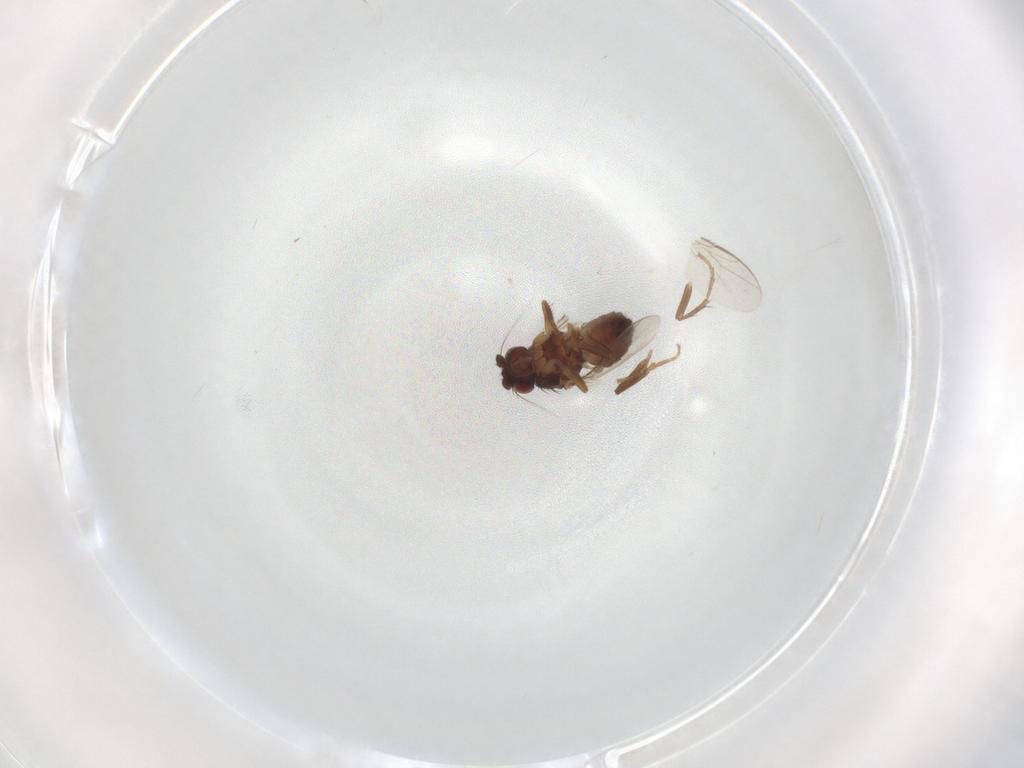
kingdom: Animalia
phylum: Arthropoda
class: Insecta
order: Diptera
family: Sphaeroceridae
